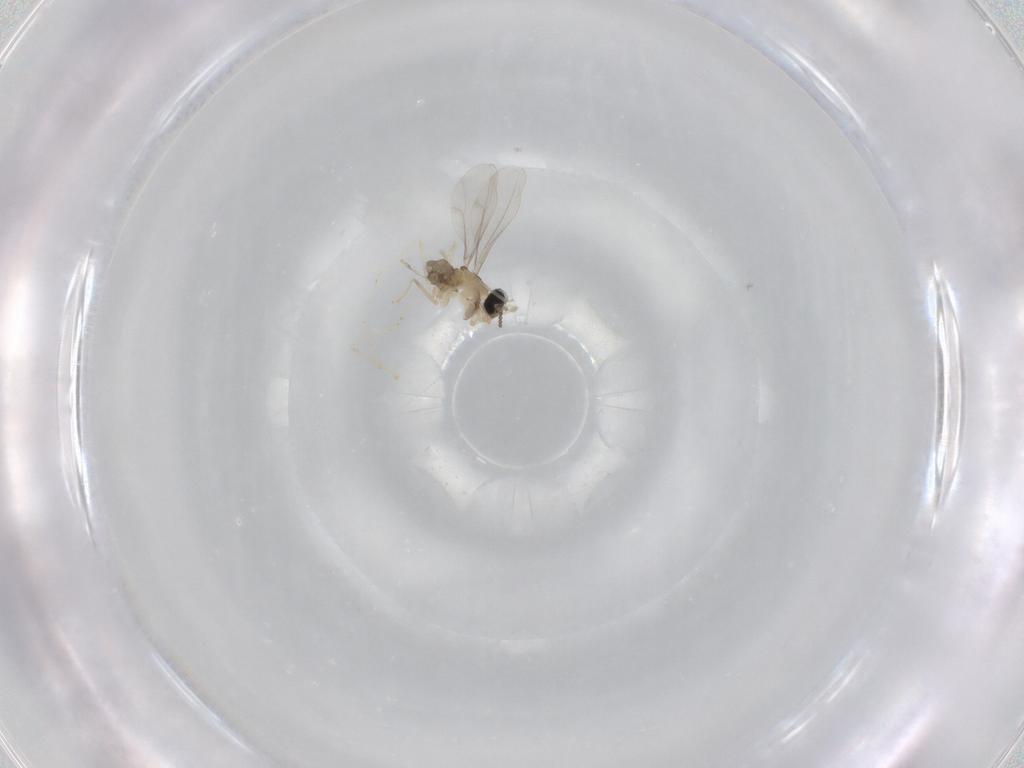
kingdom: Animalia
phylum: Arthropoda
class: Insecta
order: Diptera
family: Cecidomyiidae
